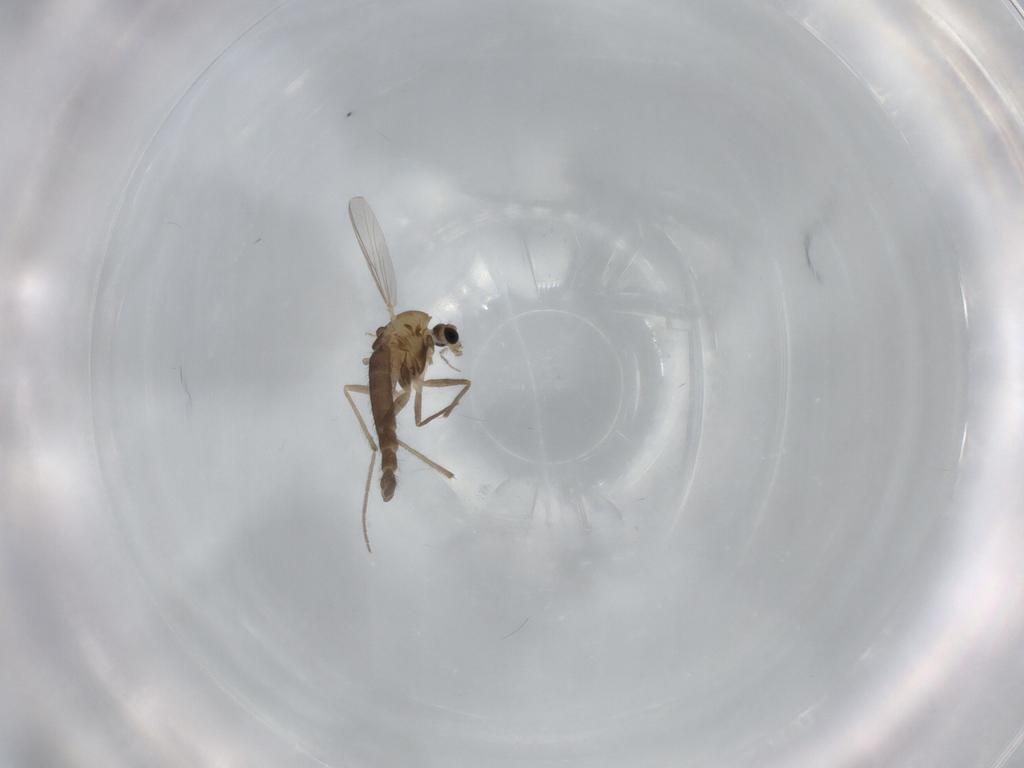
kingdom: Animalia
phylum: Arthropoda
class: Insecta
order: Diptera
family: Chironomidae
